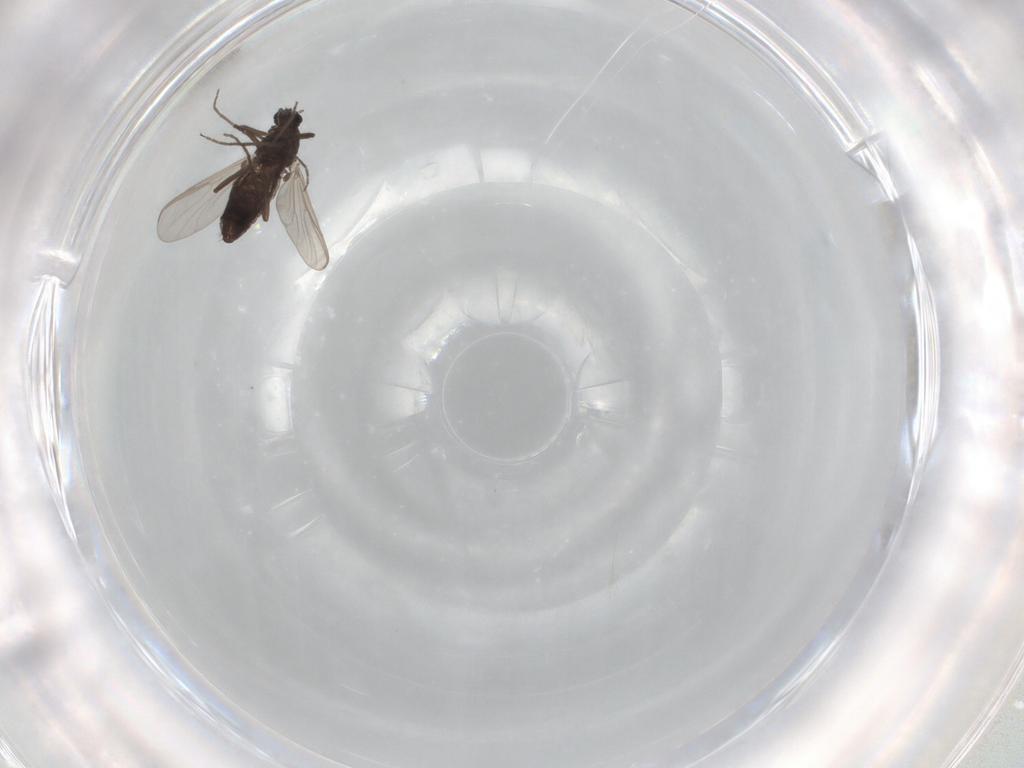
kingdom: Animalia
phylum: Arthropoda
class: Insecta
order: Diptera
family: Chironomidae
